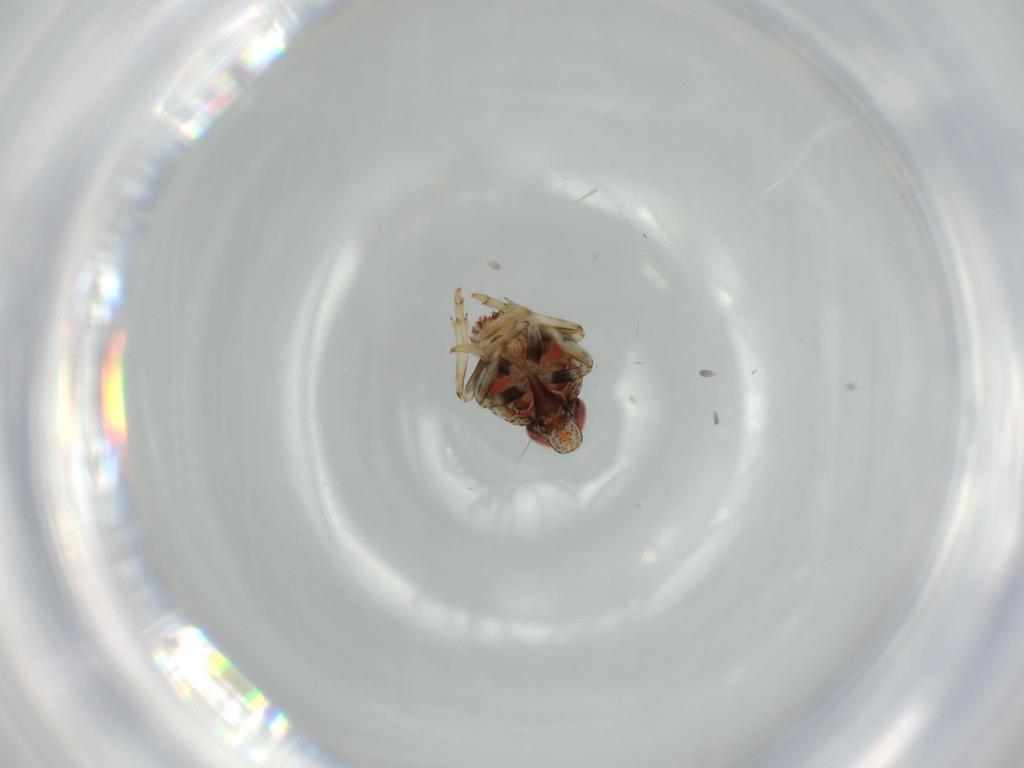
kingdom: Animalia
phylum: Arthropoda
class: Insecta
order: Hemiptera
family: Issidae
